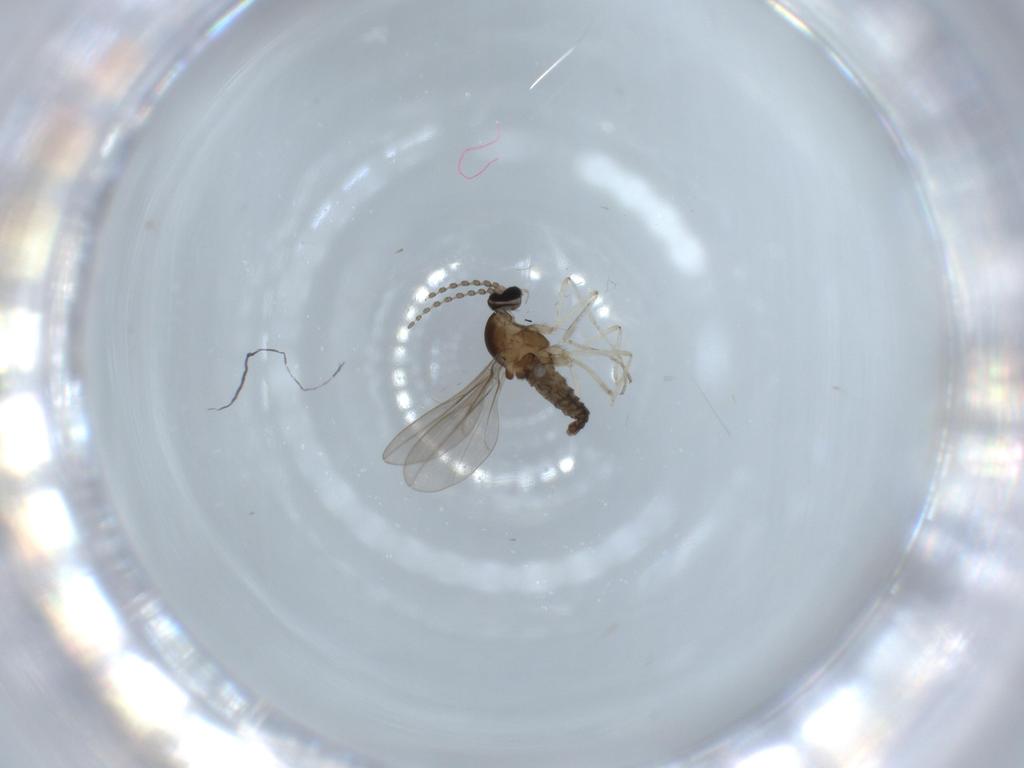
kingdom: Animalia
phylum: Arthropoda
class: Insecta
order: Diptera
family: Cecidomyiidae
